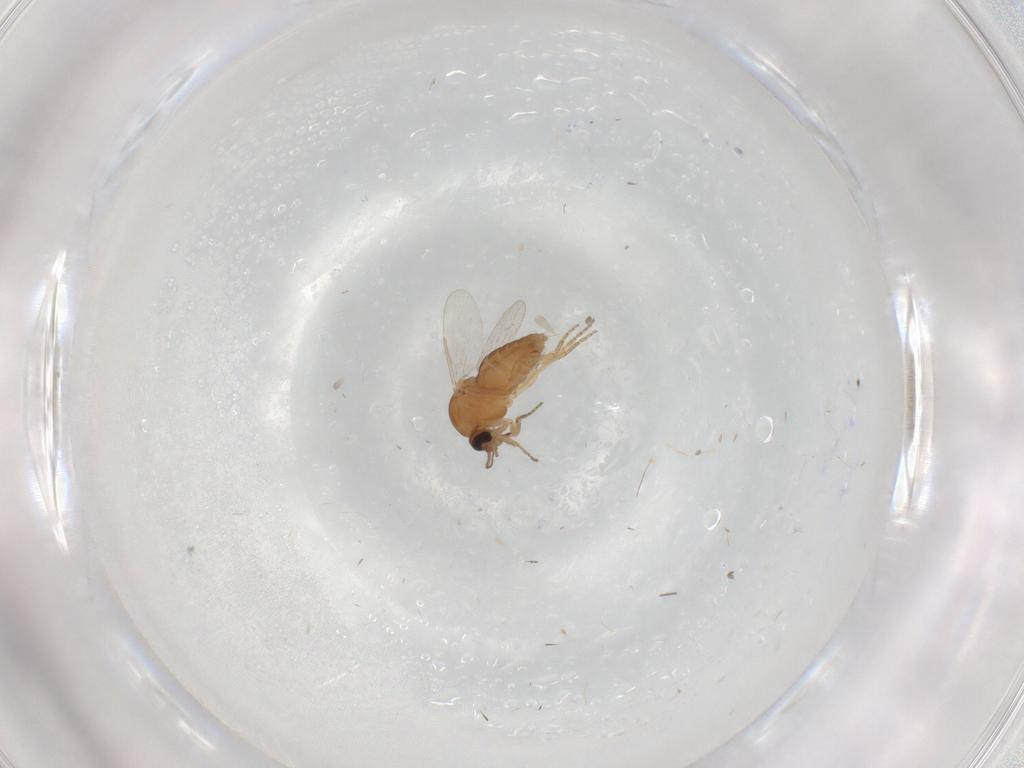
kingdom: Animalia
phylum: Arthropoda
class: Insecta
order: Diptera
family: Ceratopogonidae
